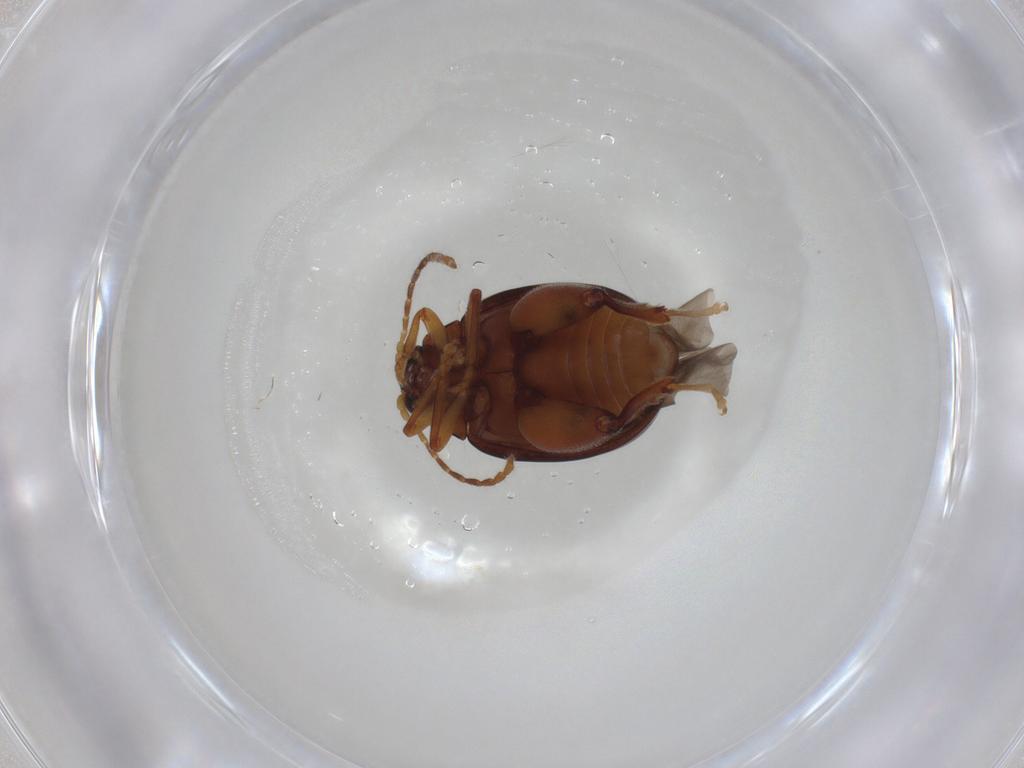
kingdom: Animalia
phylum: Arthropoda
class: Insecta
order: Coleoptera
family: Chrysomelidae
